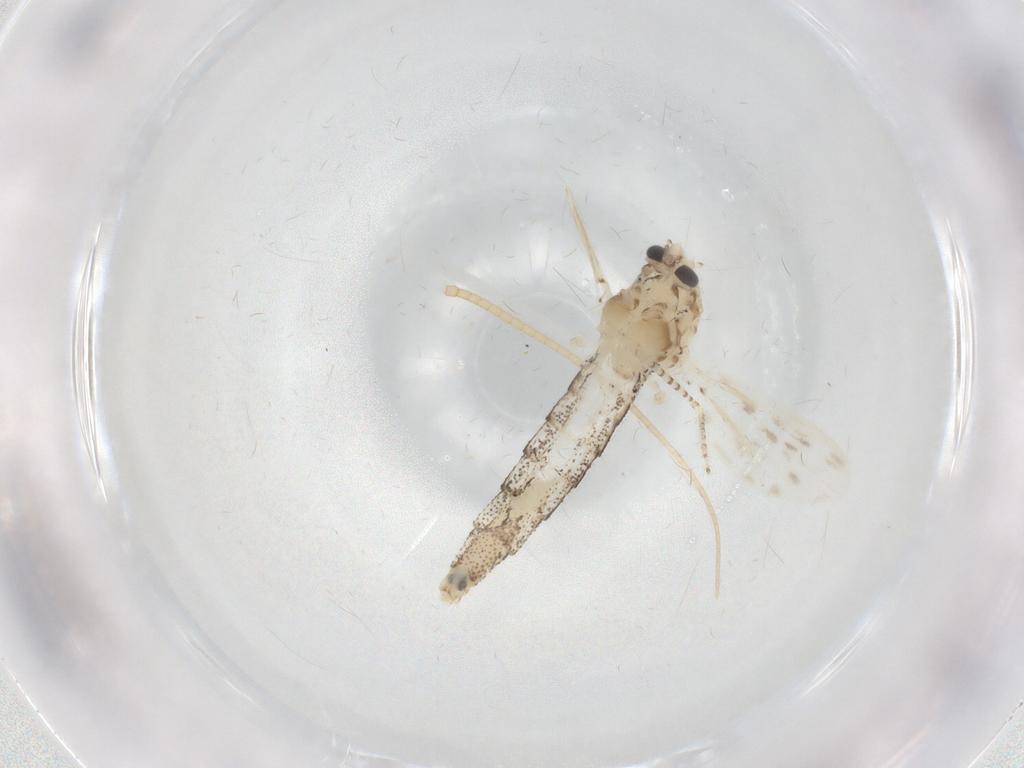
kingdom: Animalia
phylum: Arthropoda
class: Insecta
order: Diptera
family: Chaoboridae
